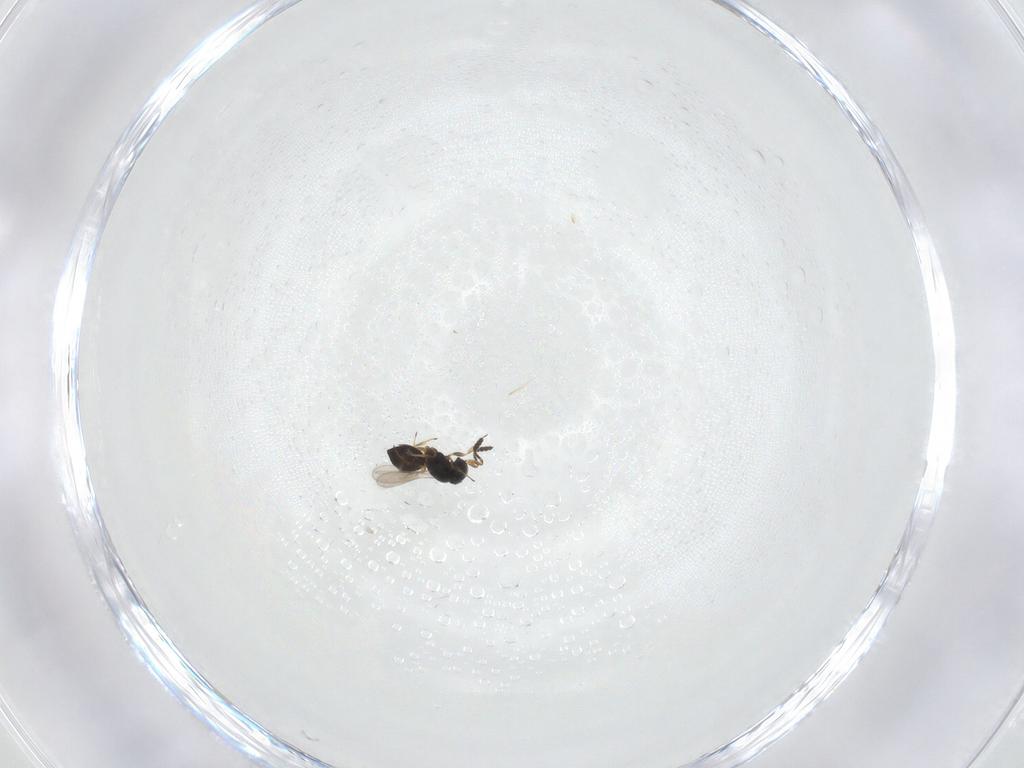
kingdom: Animalia
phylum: Arthropoda
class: Insecta
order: Hymenoptera
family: Scelionidae
